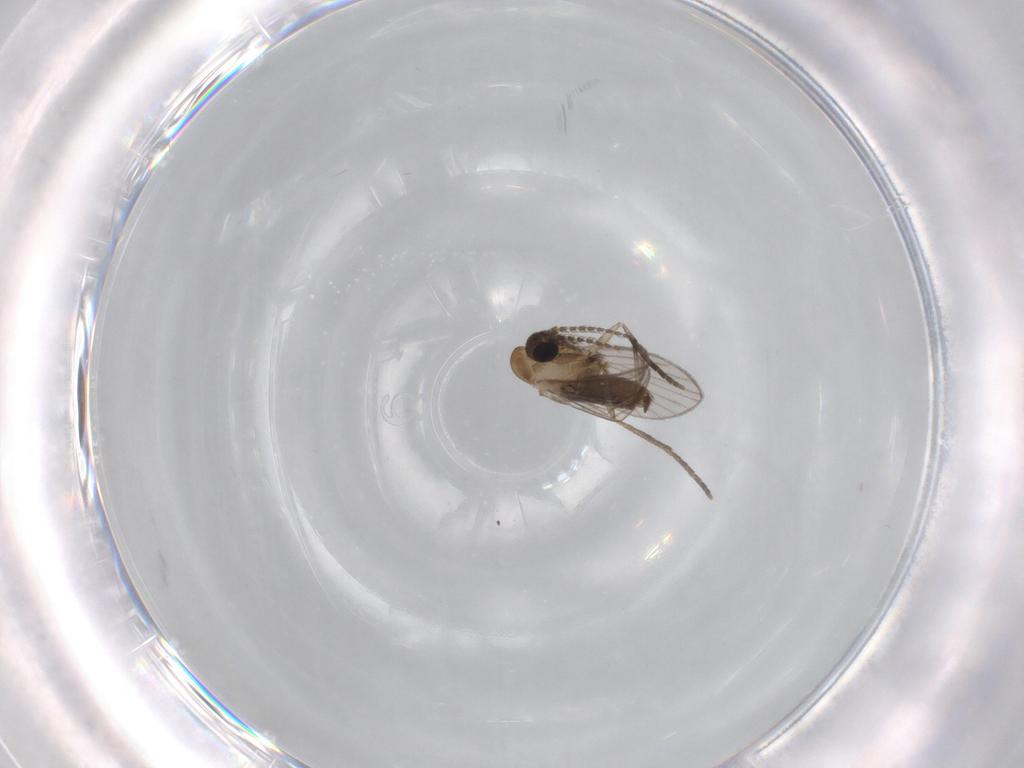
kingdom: Animalia
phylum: Arthropoda
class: Insecta
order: Diptera
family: Psychodidae
